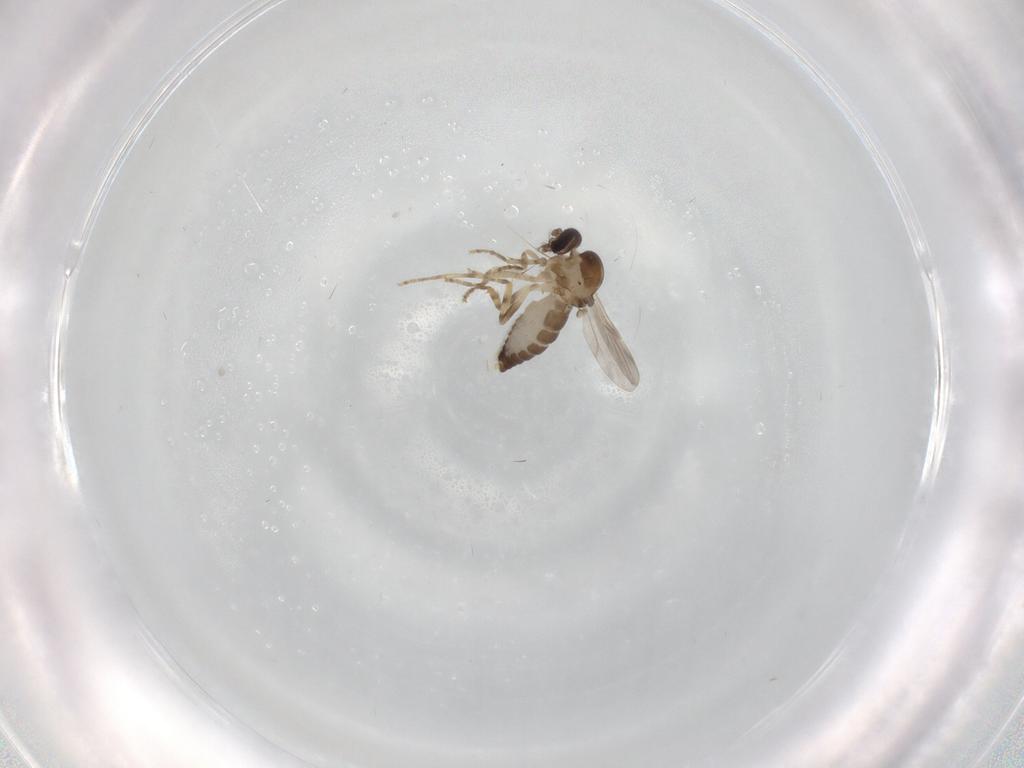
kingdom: Animalia
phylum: Arthropoda
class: Insecta
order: Diptera
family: Ceratopogonidae
